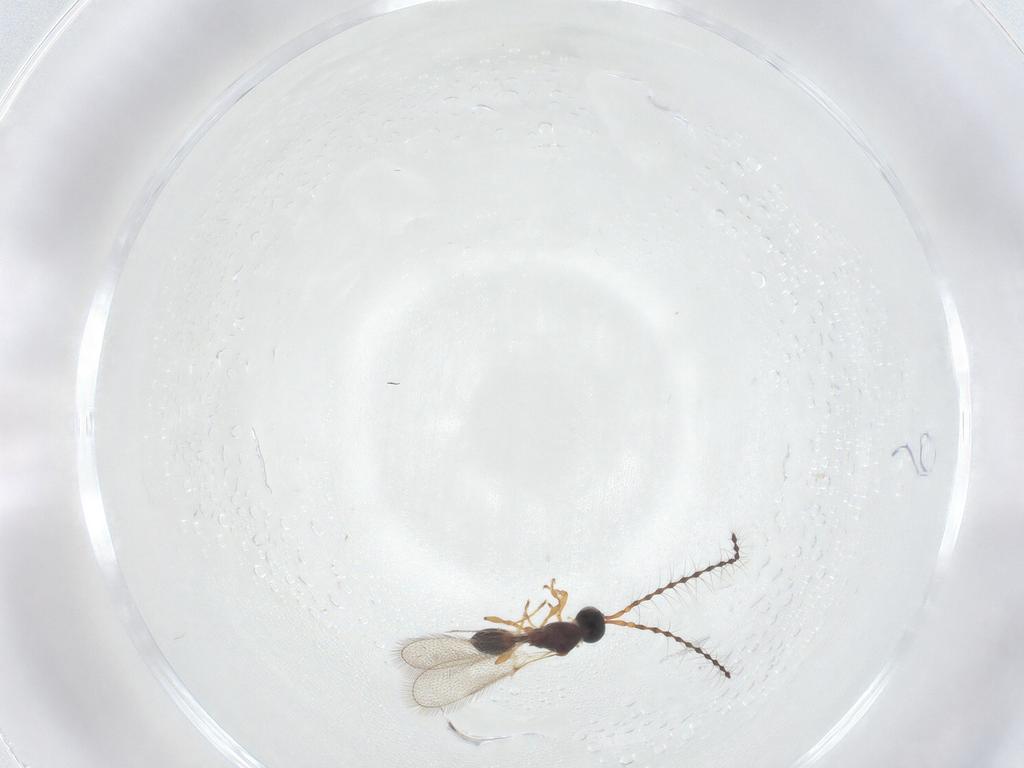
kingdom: Animalia
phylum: Arthropoda
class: Insecta
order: Hymenoptera
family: Diapriidae
